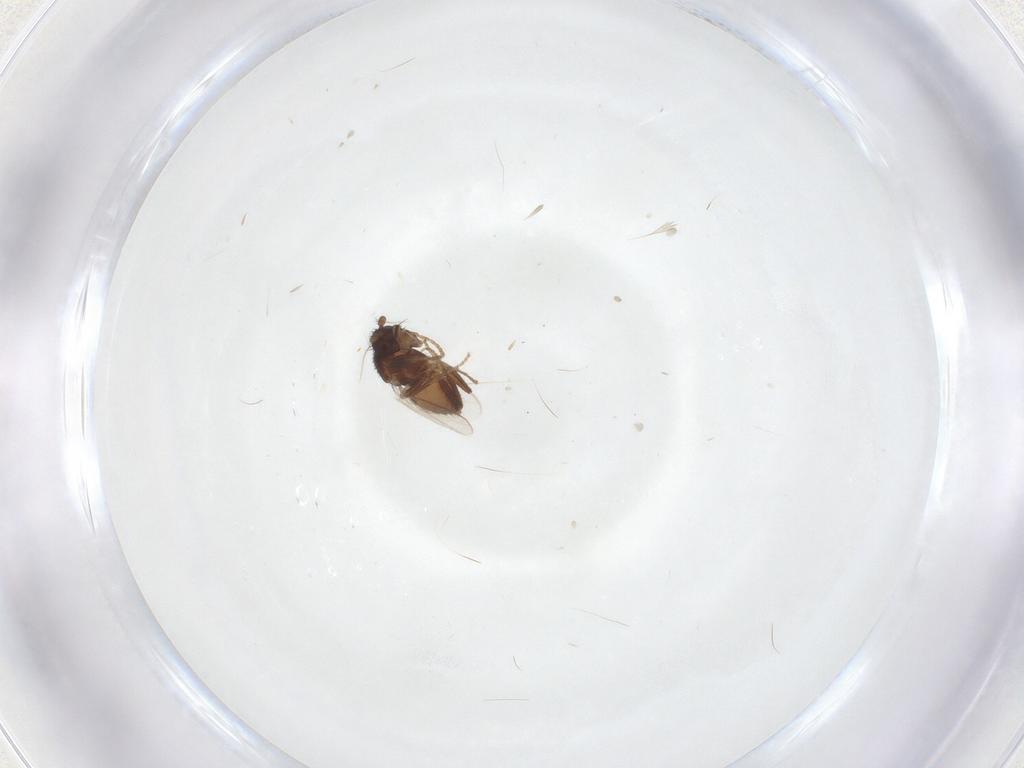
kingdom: Animalia
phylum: Arthropoda
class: Insecta
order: Diptera
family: Sphaeroceridae
